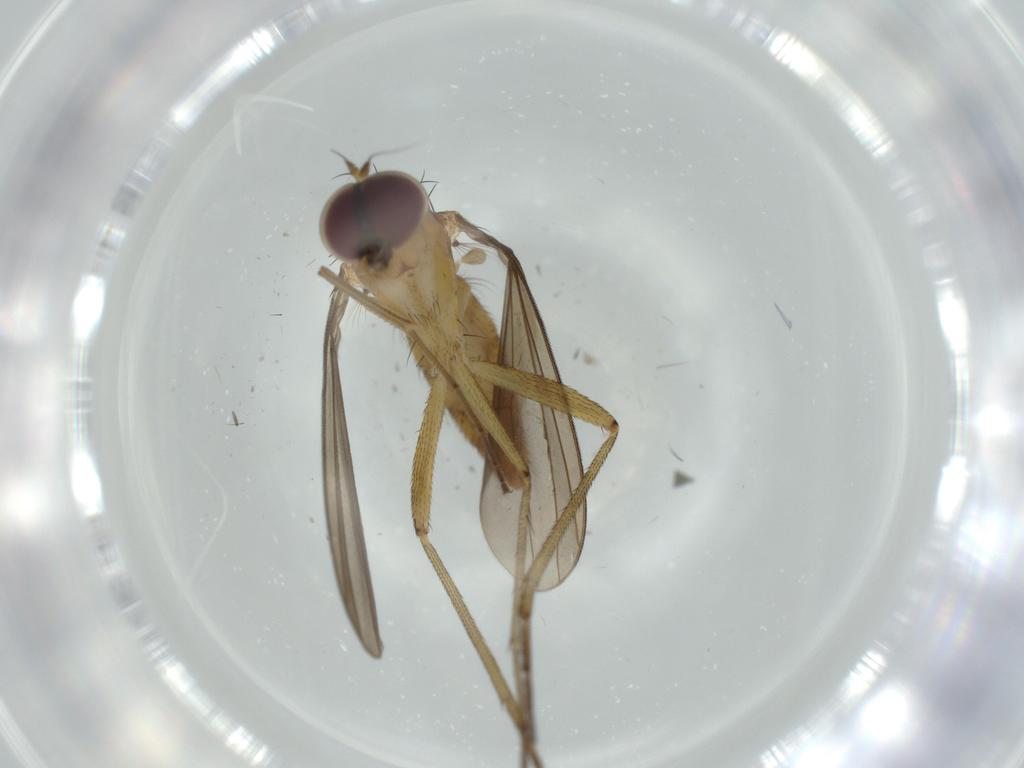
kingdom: Animalia
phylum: Arthropoda
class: Insecta
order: Diptera
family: Dolichopodidae
